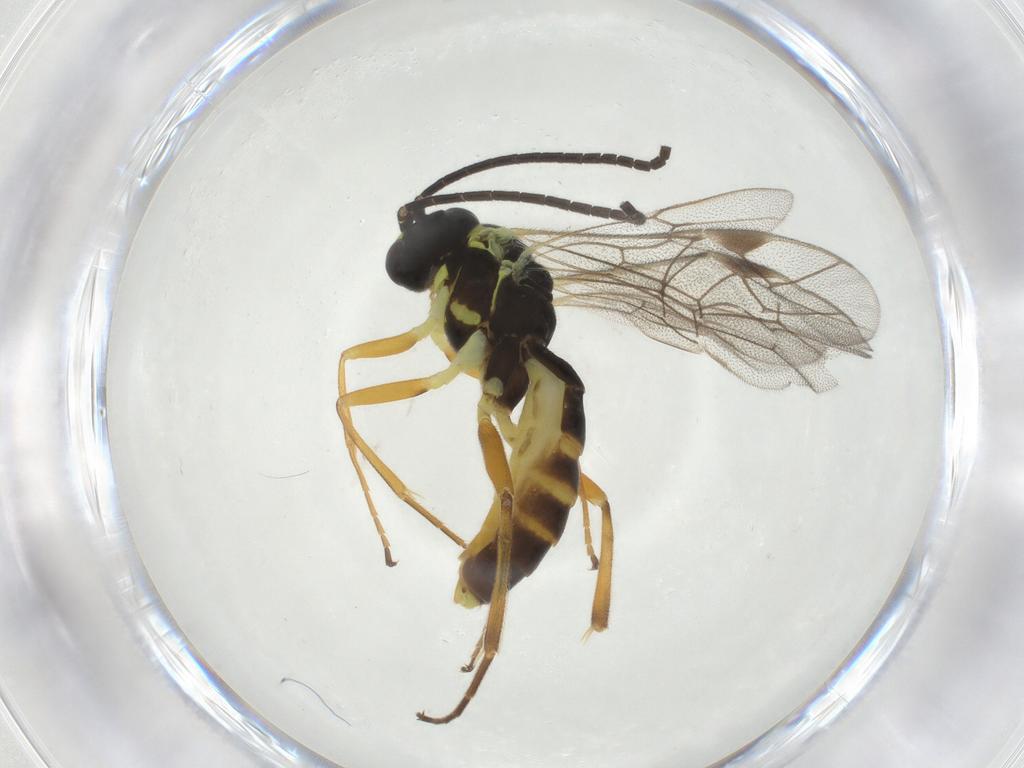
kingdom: Animalia
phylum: Arthropoda
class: Insecta
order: Hymenoptera
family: Ichneumonidae
